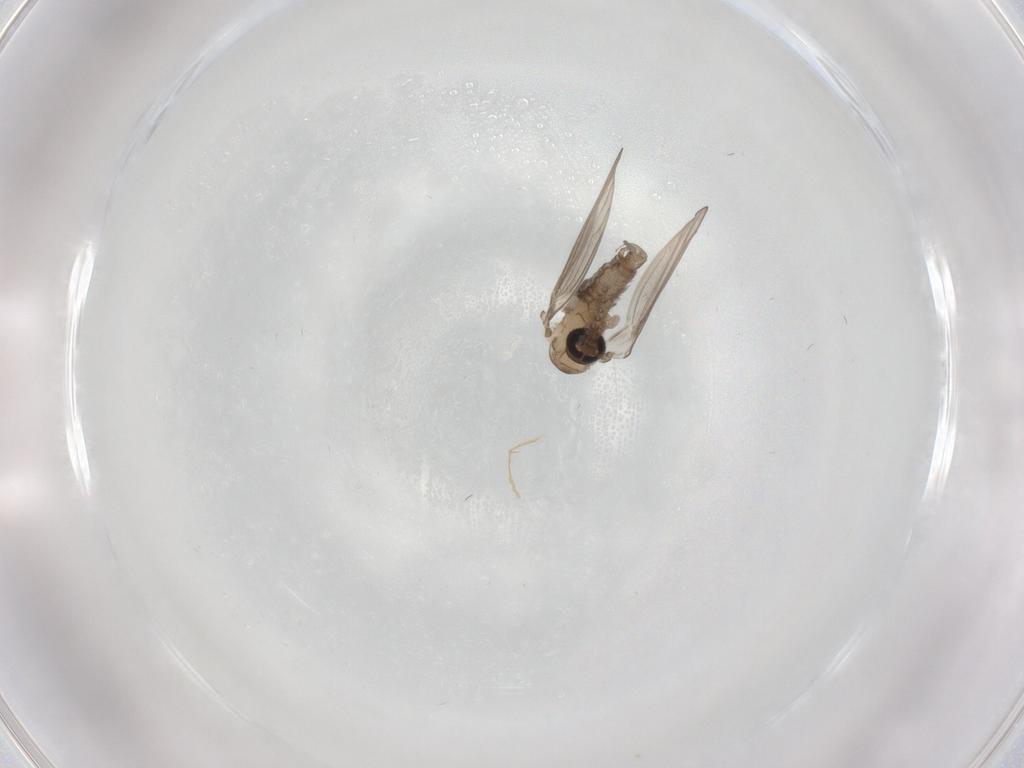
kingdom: Animalia
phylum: Arthropoda
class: Insecta
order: Diptera
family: Psychodidae
